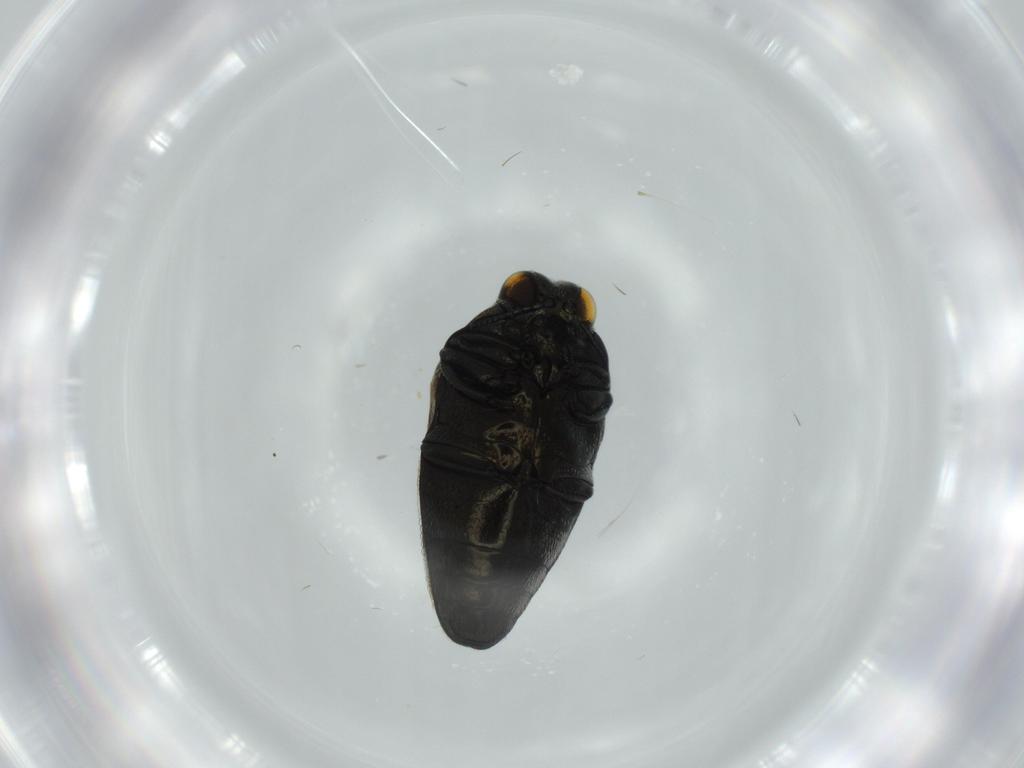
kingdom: Animalia
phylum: Arthropoda
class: Insecta
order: Coleoptera
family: Buprestidae
